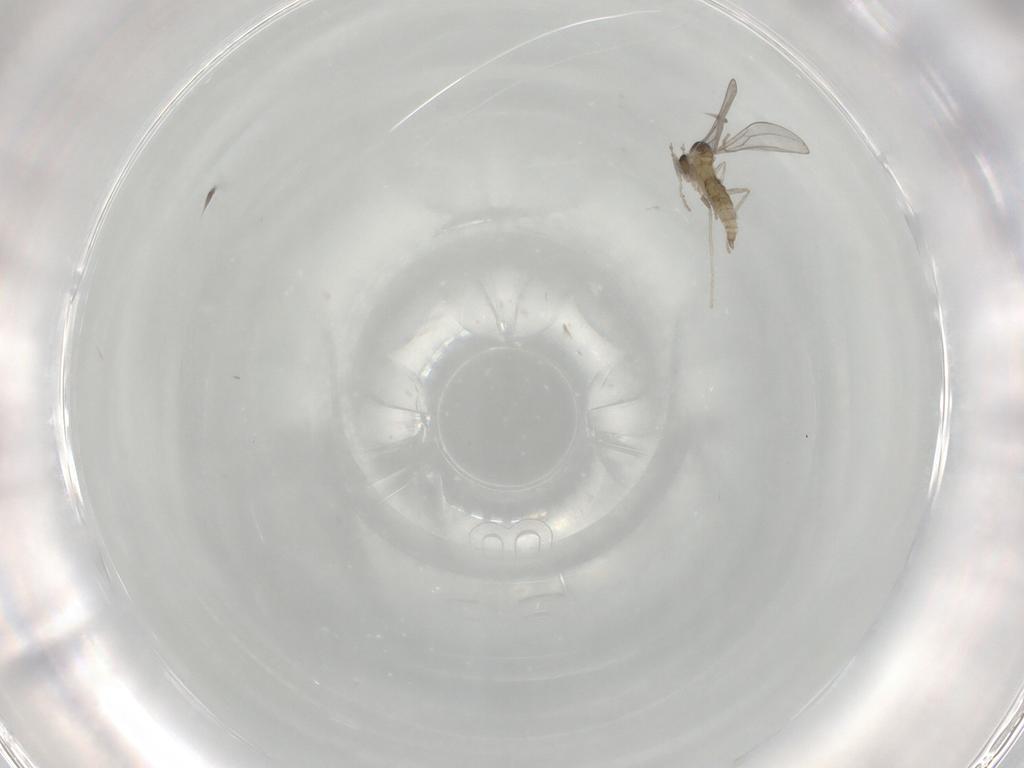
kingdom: Animalia
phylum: Arthropoda
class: Insecta
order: Diptera
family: Cecidomyiidae
